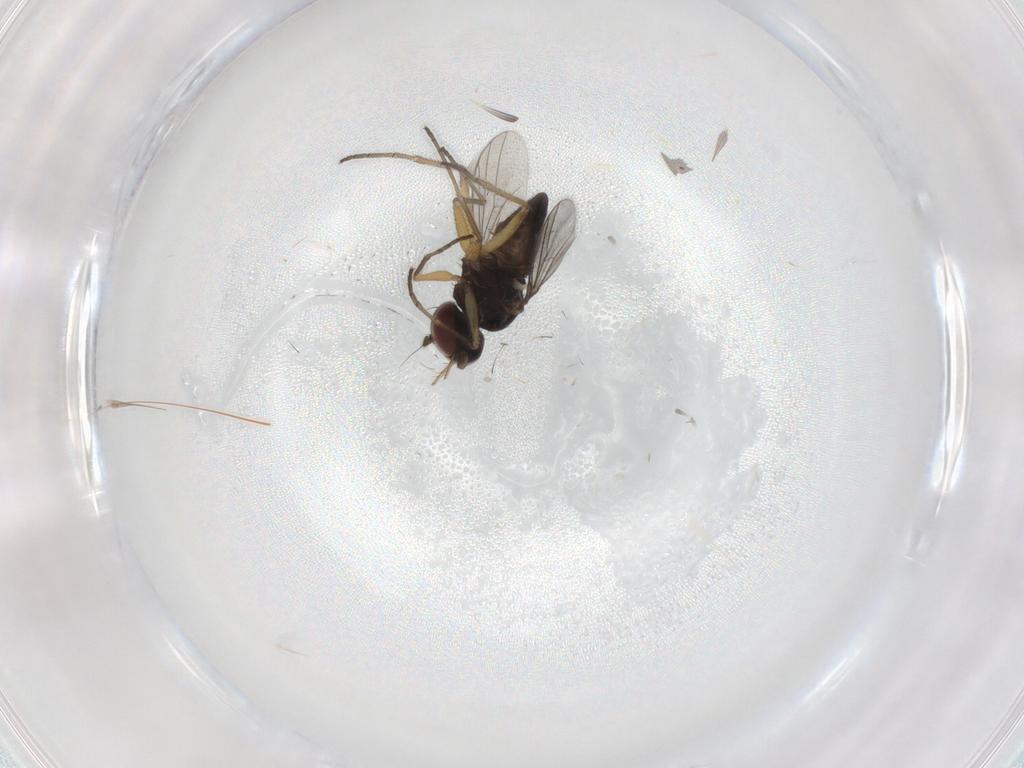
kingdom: Animalia
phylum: Arthropoda
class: Insecta
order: Diptera
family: Dolichopodidae
